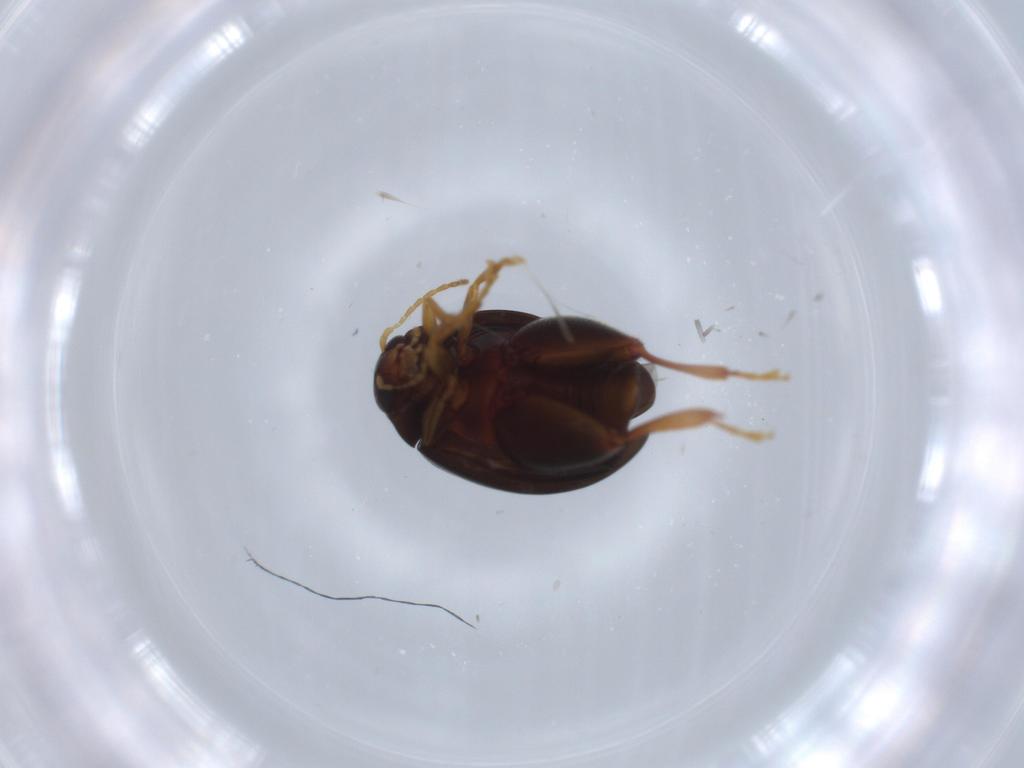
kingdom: Animalia
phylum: Arthropoda
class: Insecta
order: Coleoptera
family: Chrysomelidae
